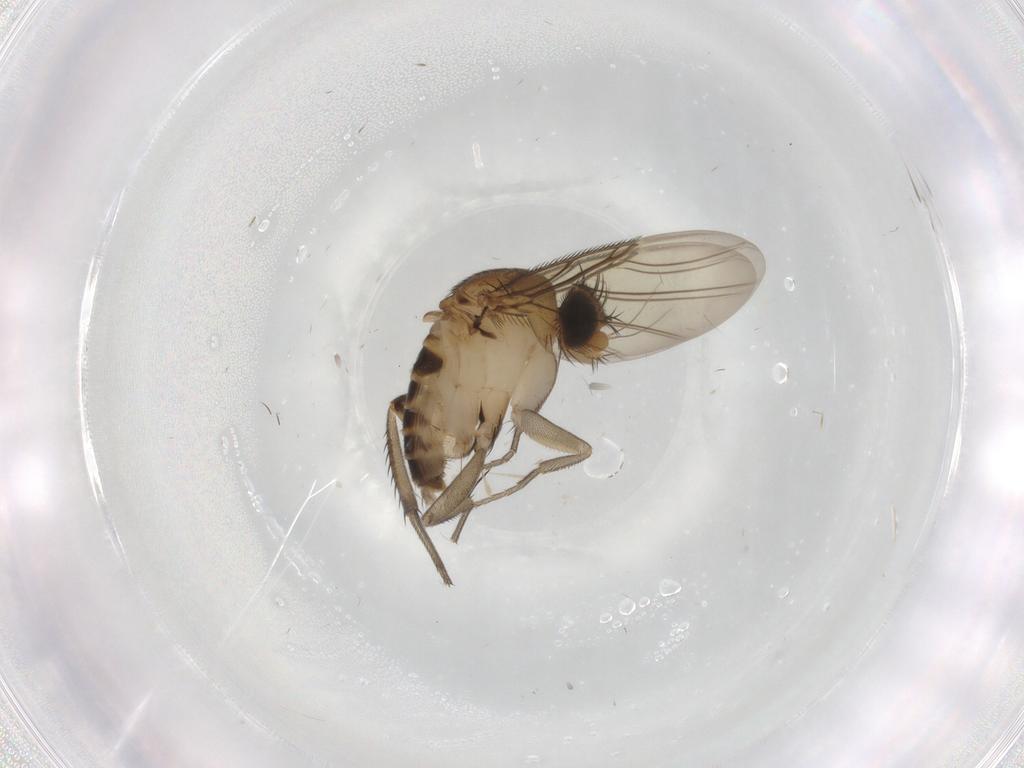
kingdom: Animalia
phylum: Arthropoda
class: Insecta
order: Diptera
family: Phoridae
